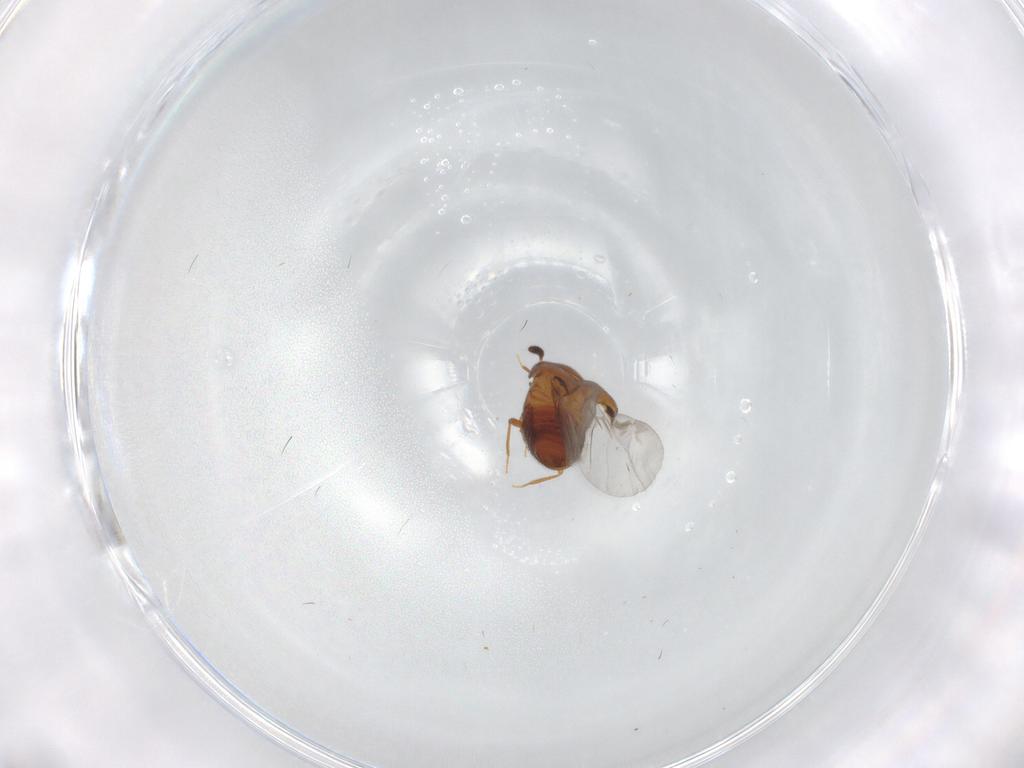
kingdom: Animalia
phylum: Arthropoda
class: Insecta
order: Coleoptera
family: Staphylinidae
